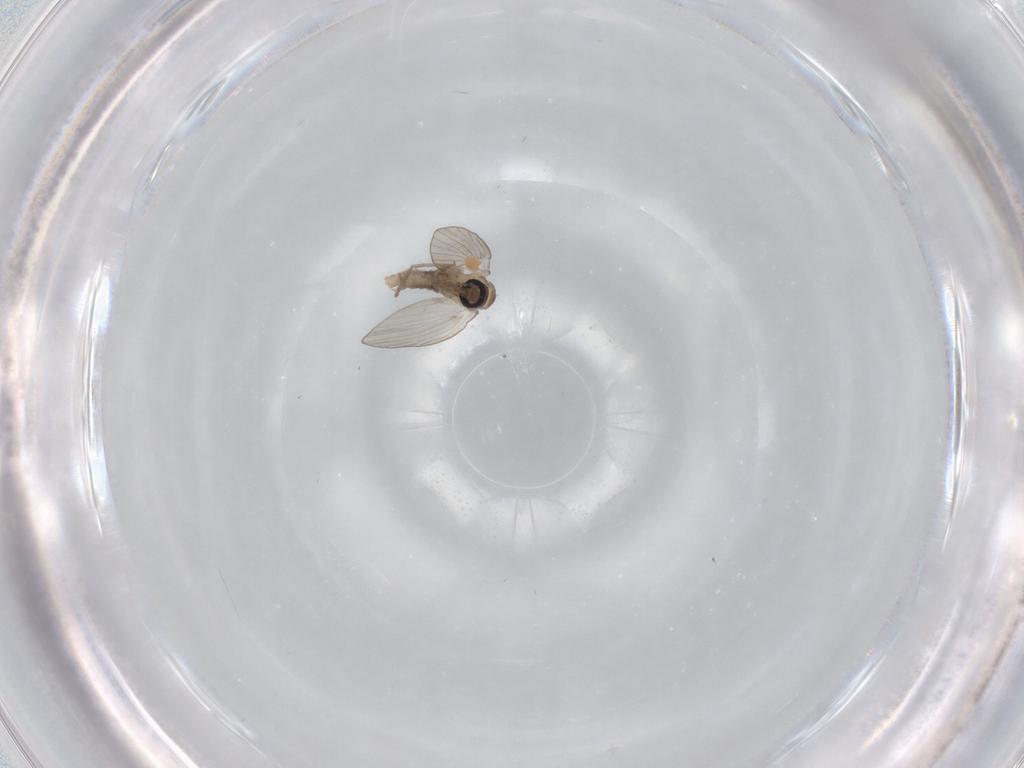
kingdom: Animalia
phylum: Arthropoda
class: Insecta
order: Diptera
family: Psychodidae
